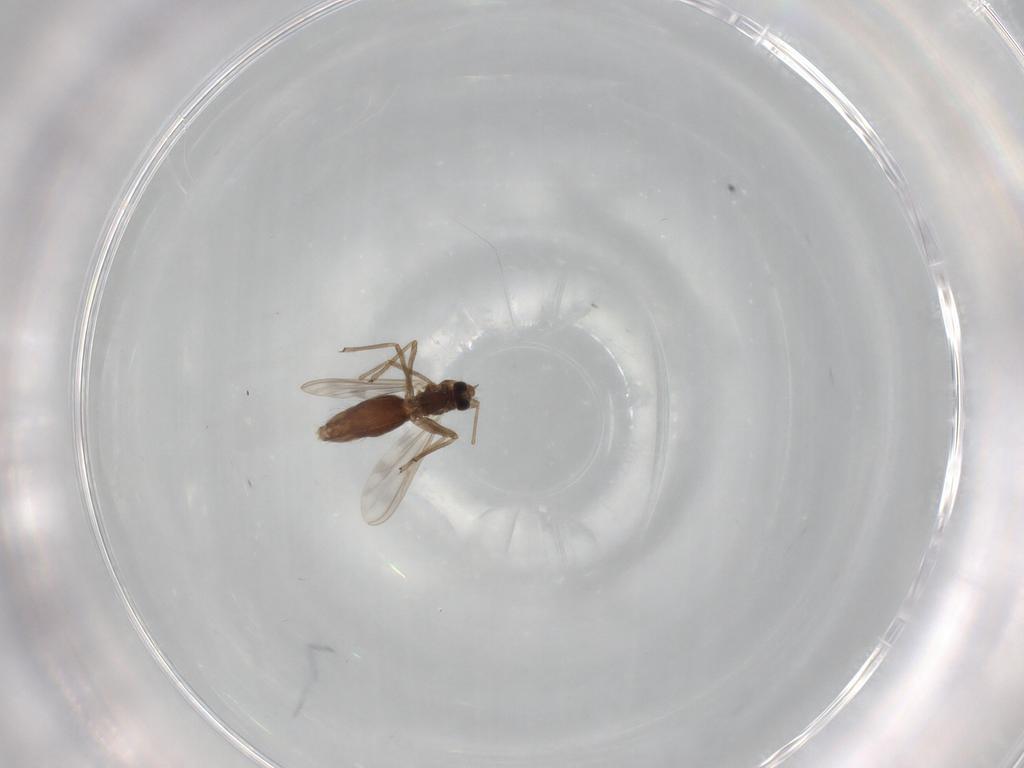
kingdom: Animalia
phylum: Arthropoda
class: Insecta
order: Diptera
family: Chironomidae
